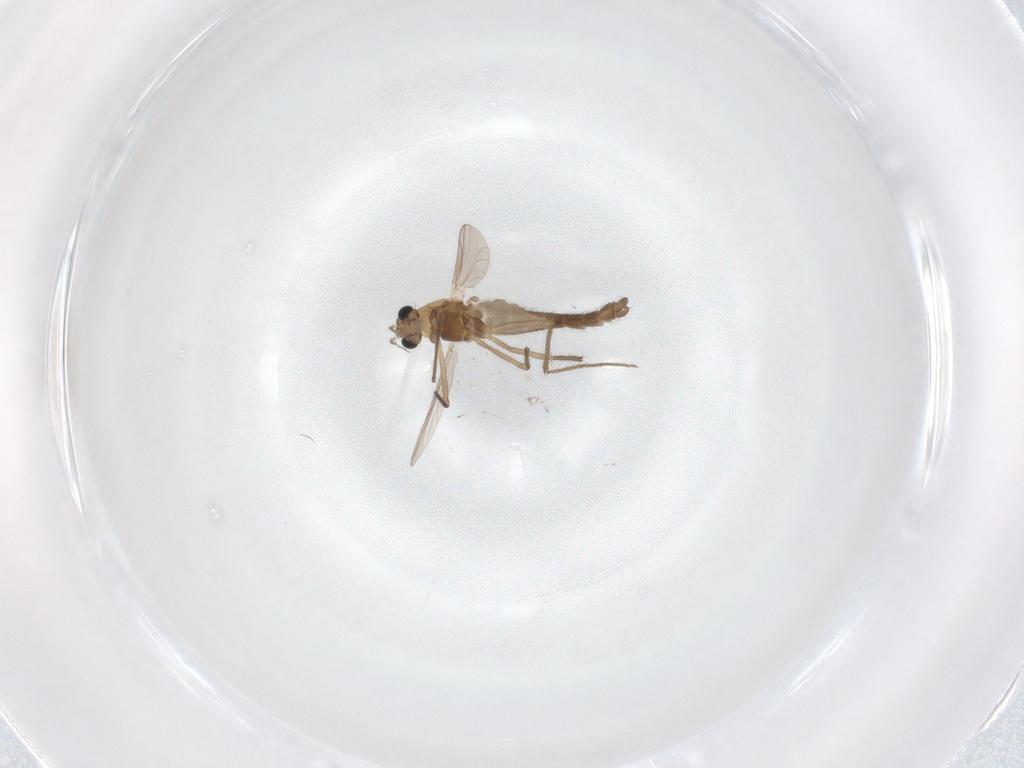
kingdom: Animalia
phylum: Arthropoda
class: Insecta
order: Diptera
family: Chironomidae
